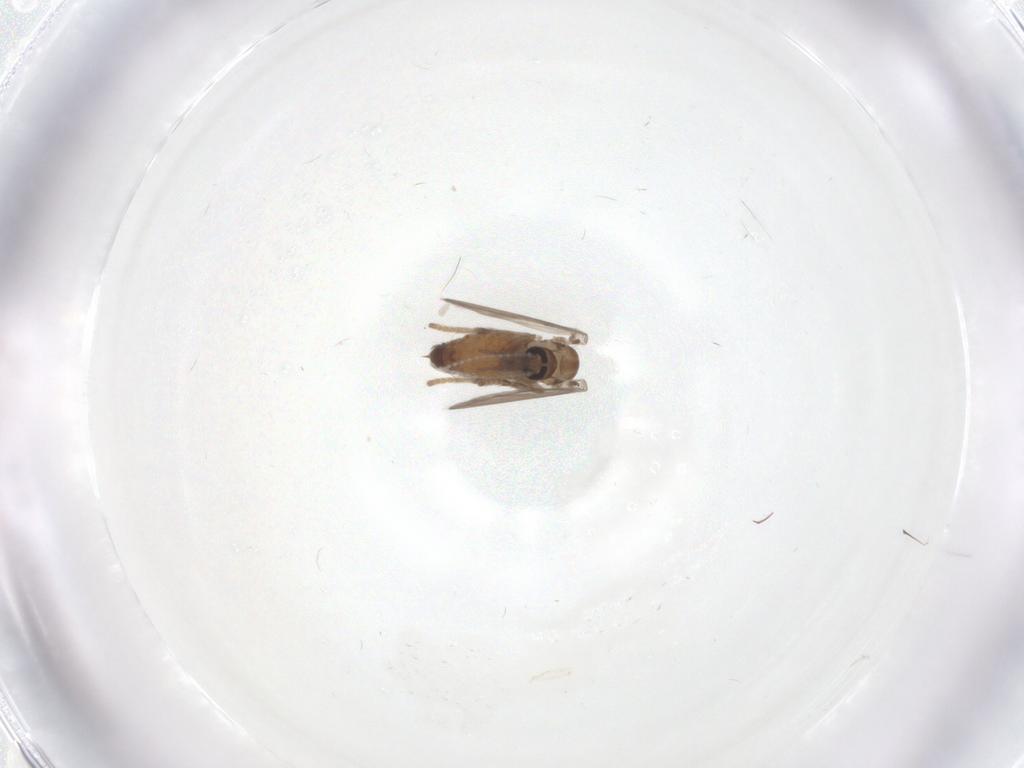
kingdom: Animalia
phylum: Arthropoda
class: Insecta
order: Diptera
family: Psychodidae
